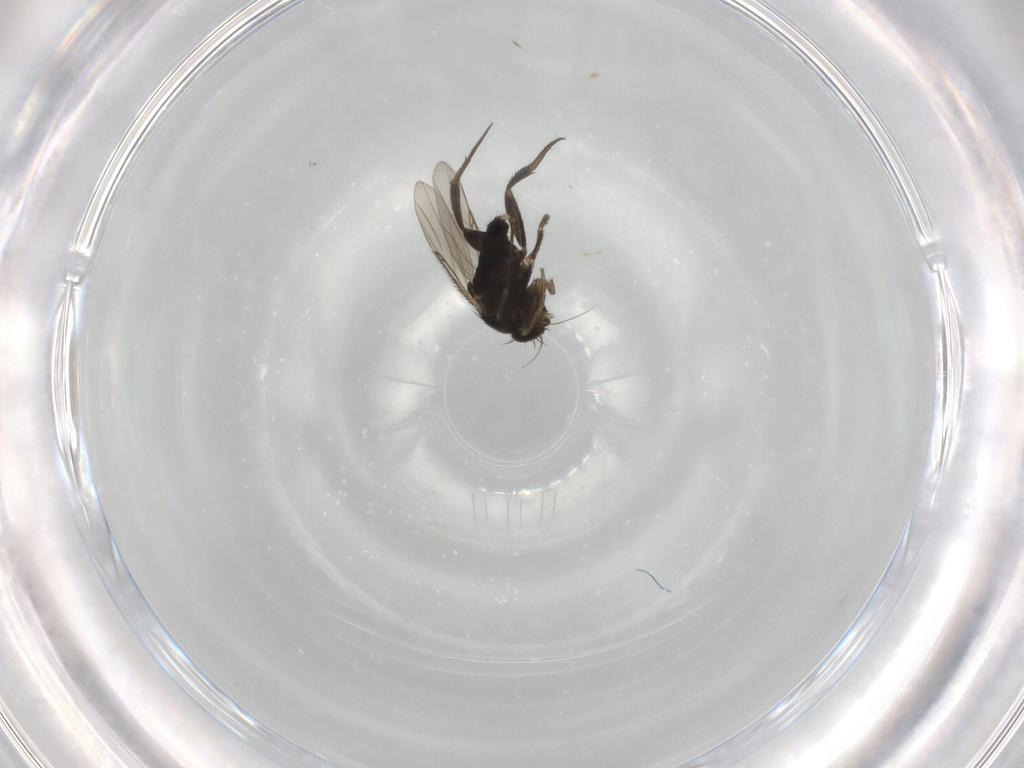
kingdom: Animalia
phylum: Arthropoda
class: Insecta
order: Diptera
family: Phoridae
